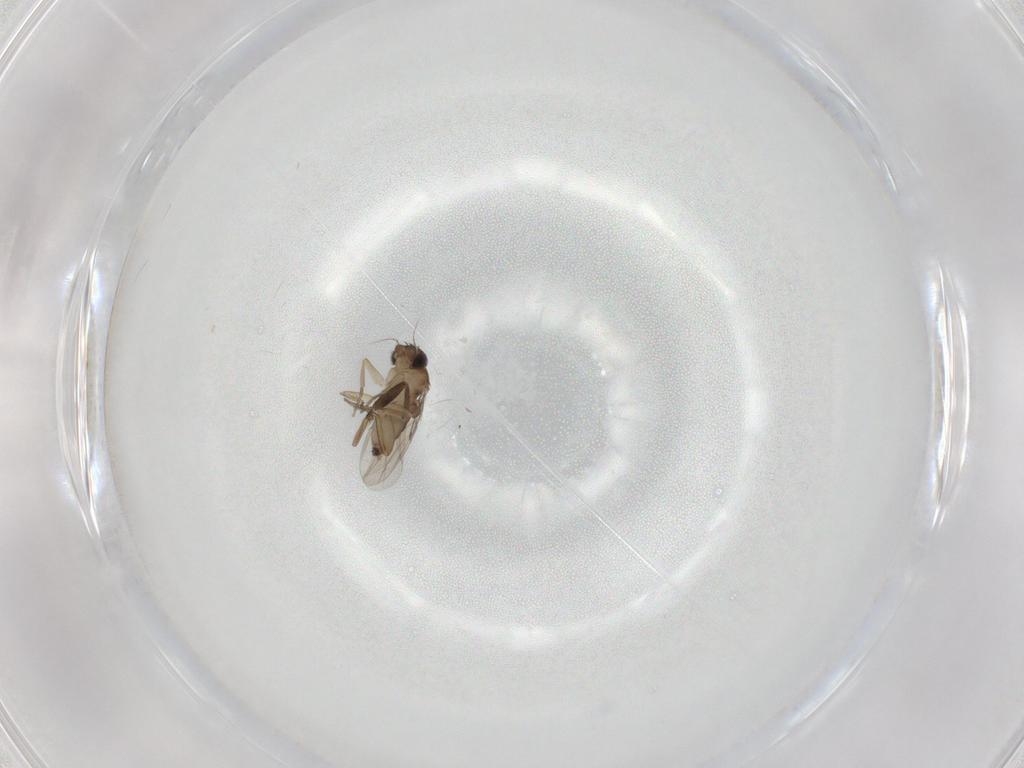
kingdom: Animalia
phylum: Arthropoda
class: Insecta
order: Diptera
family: Phoridae
